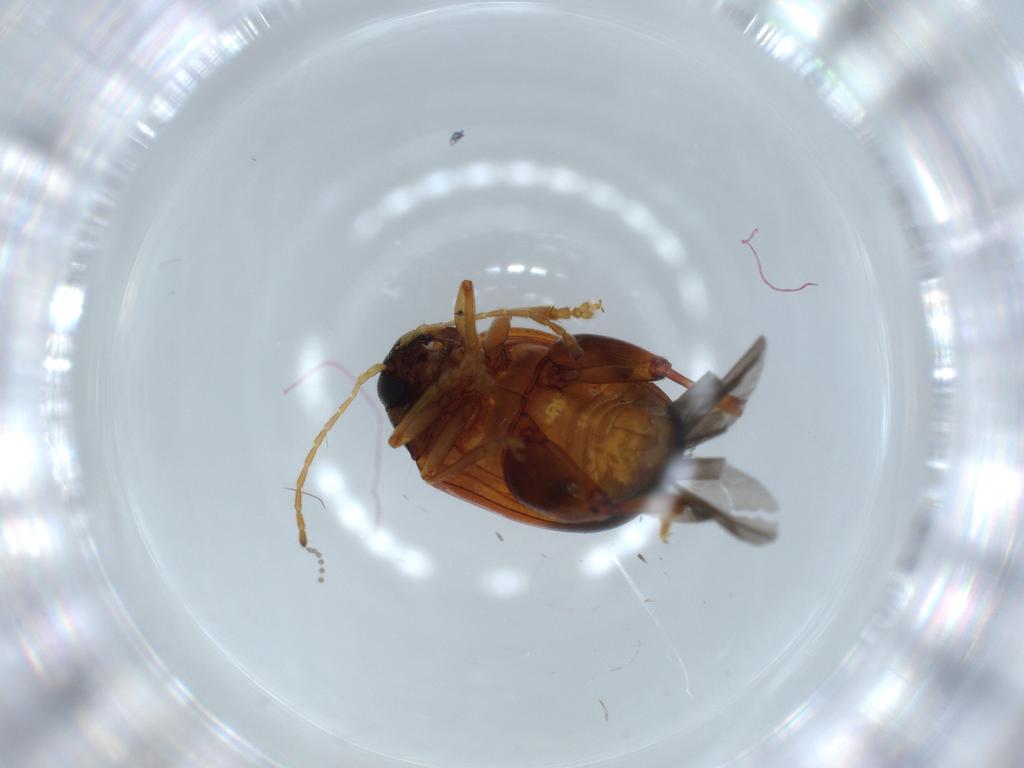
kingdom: Animalia
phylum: Arthropoda
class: Insecta
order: Coleoptera
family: Chrysomelidae
